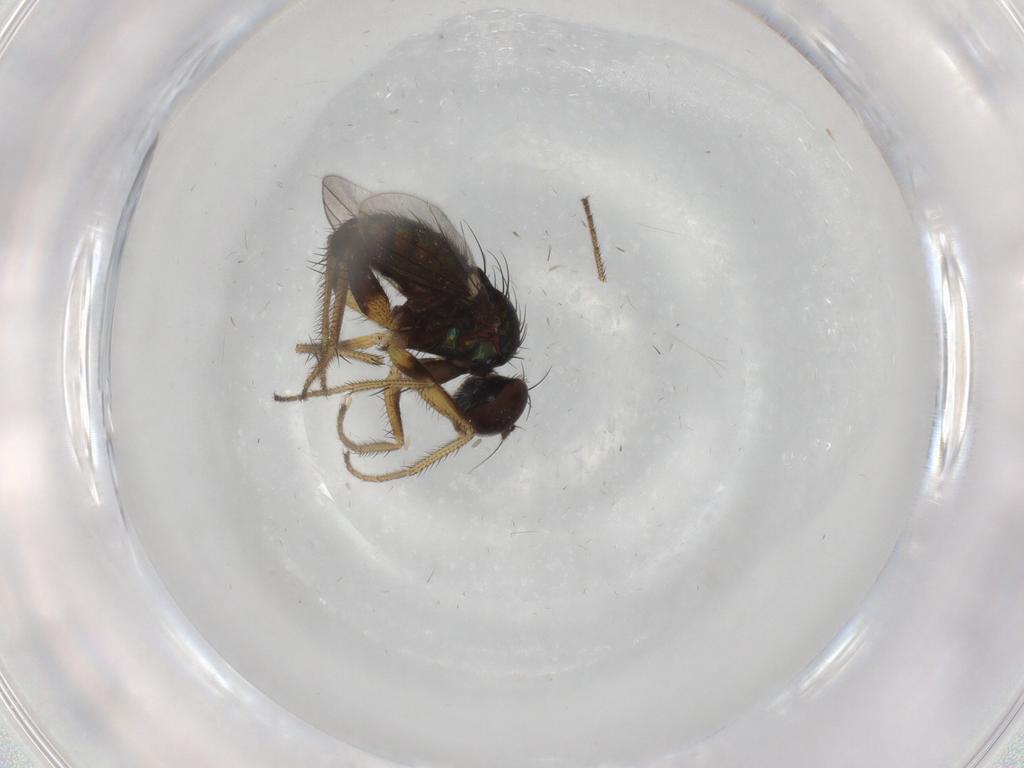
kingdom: Animalia
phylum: Arthropoda
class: Insecta
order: Diptera
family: Dolichopodidae
